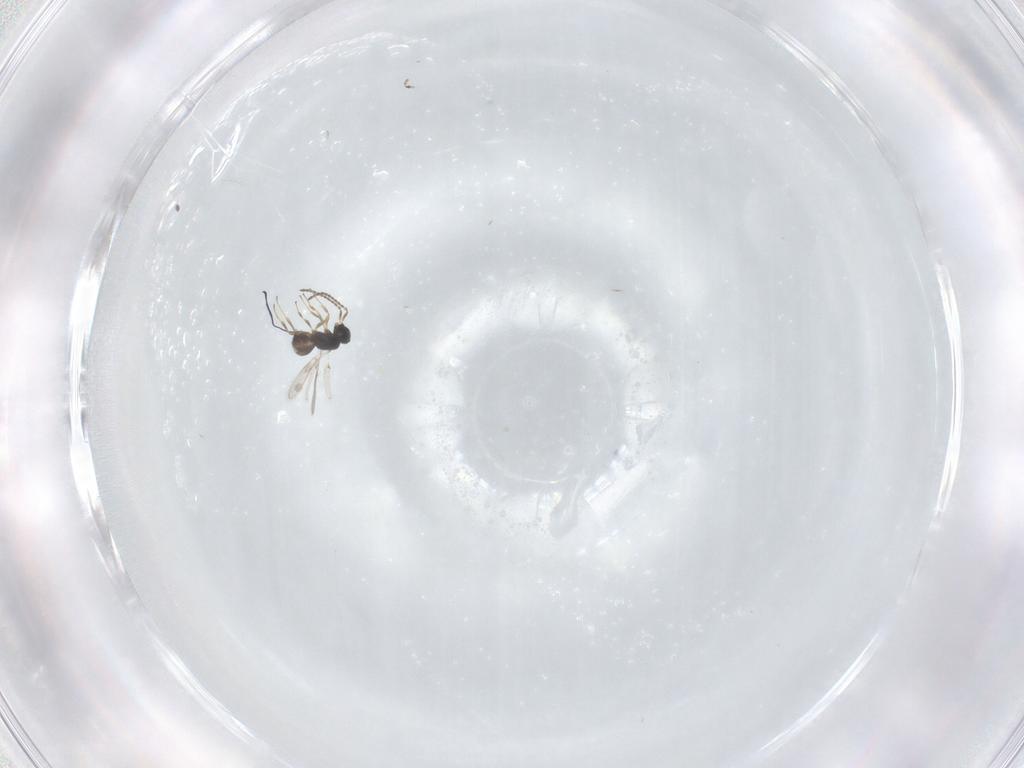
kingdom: Animalia
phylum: Arthropoda
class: Insecta
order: Hymenoptera
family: Scelionidae
